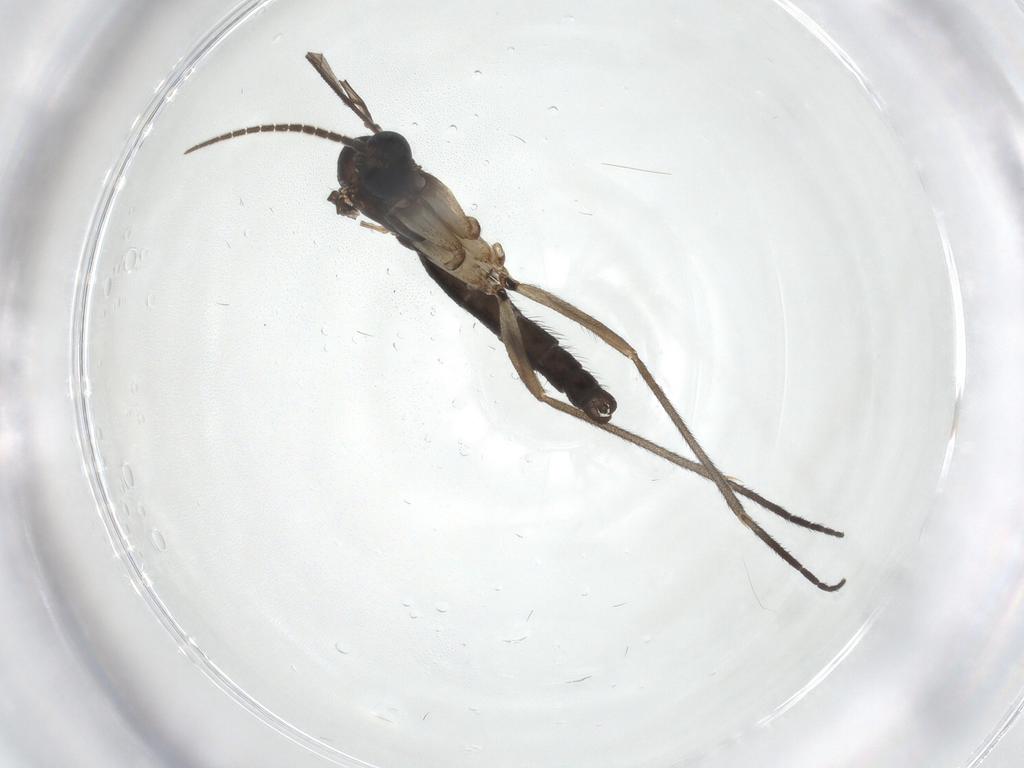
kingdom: Animalia
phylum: Arthropoda
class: Insecta
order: Diptera
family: Sciaridae
